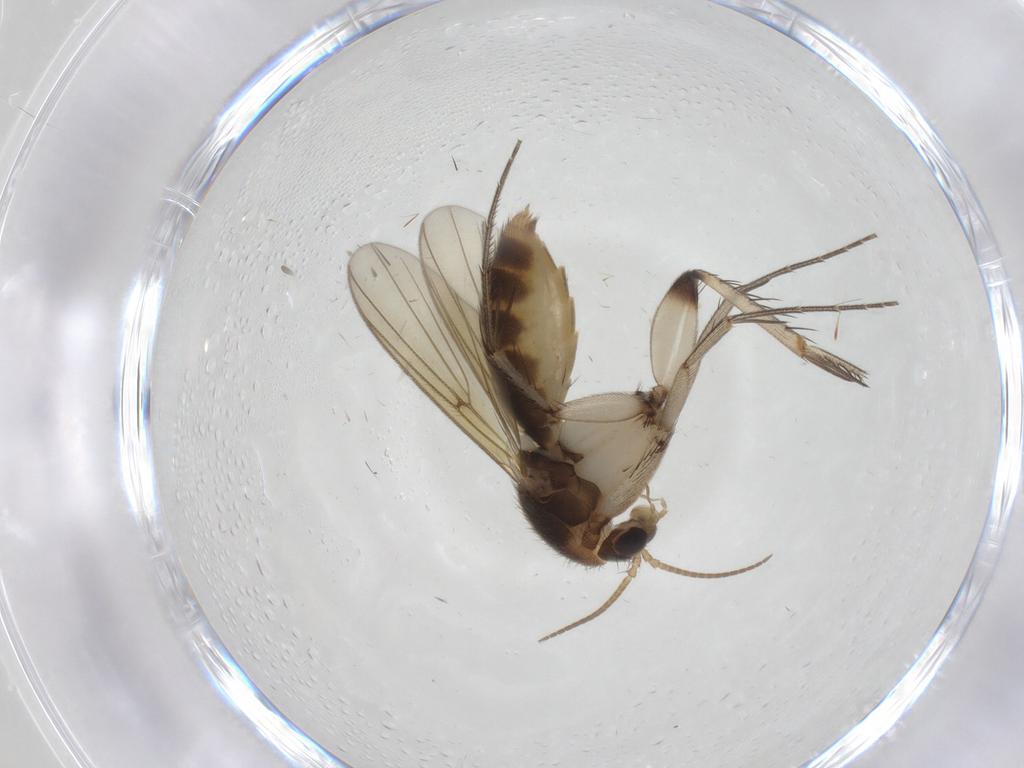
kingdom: Animalia
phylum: Arthropoda
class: Insecta
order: Diptera
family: Mycetophilidae
